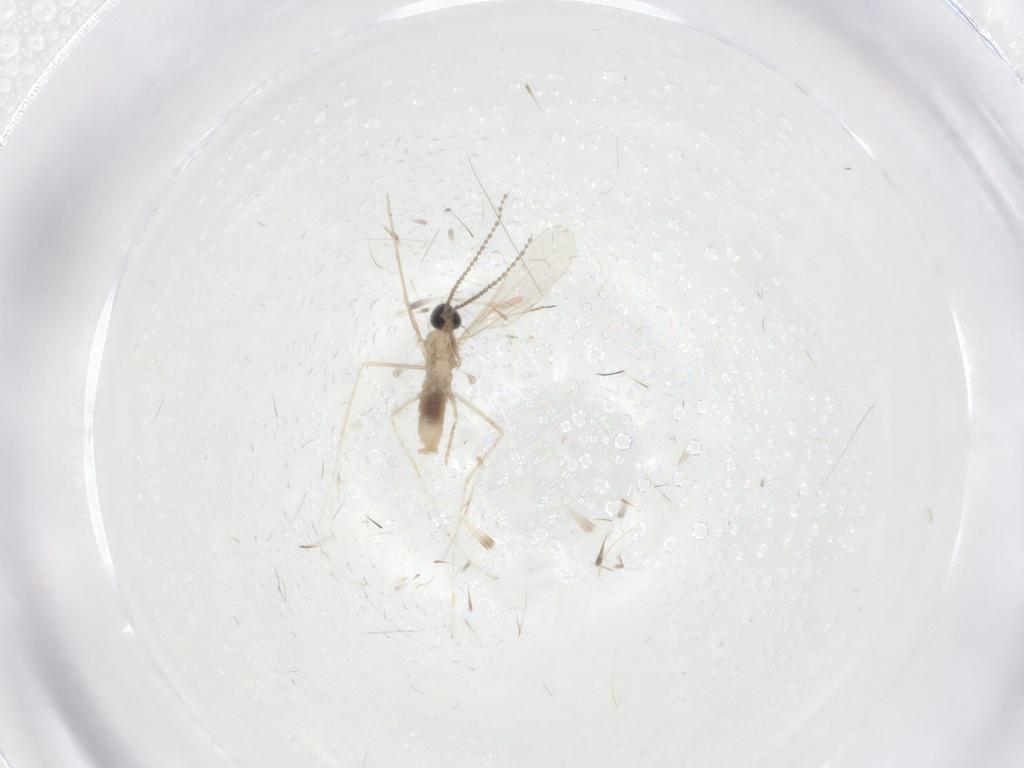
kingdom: Animalia
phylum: Arthropoda
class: Insecta
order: Diptera
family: Cecidomyiidae
